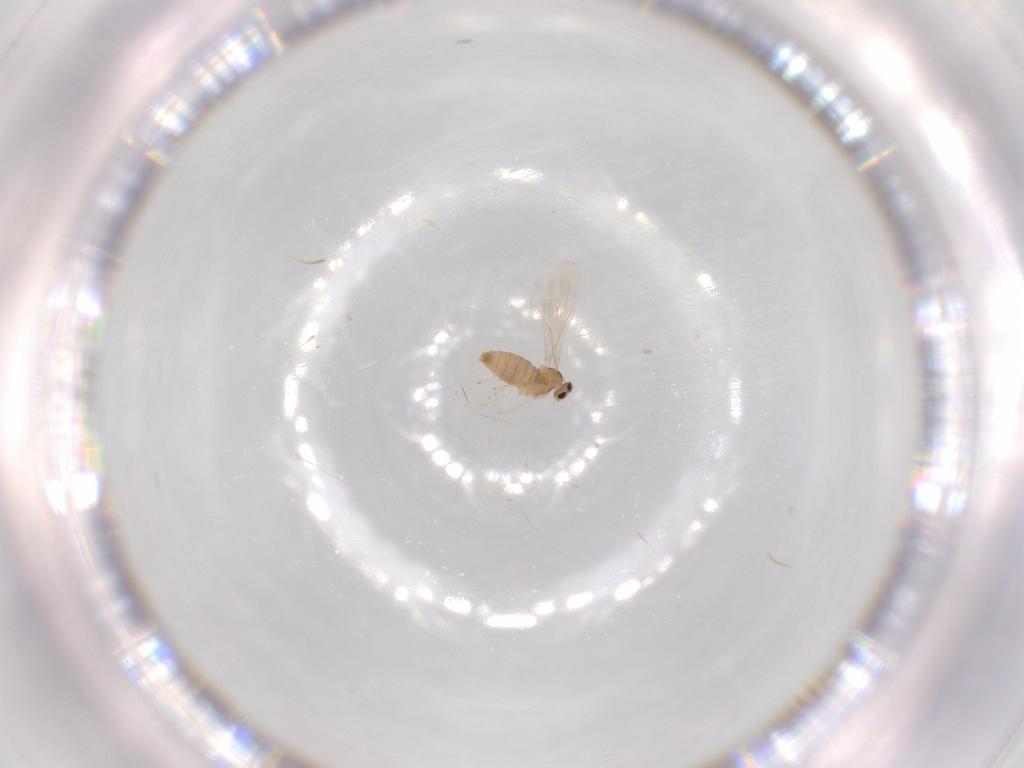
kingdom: Animalia
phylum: Arthropoda
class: Insecta
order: Diptera
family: Cecidomyiidae
